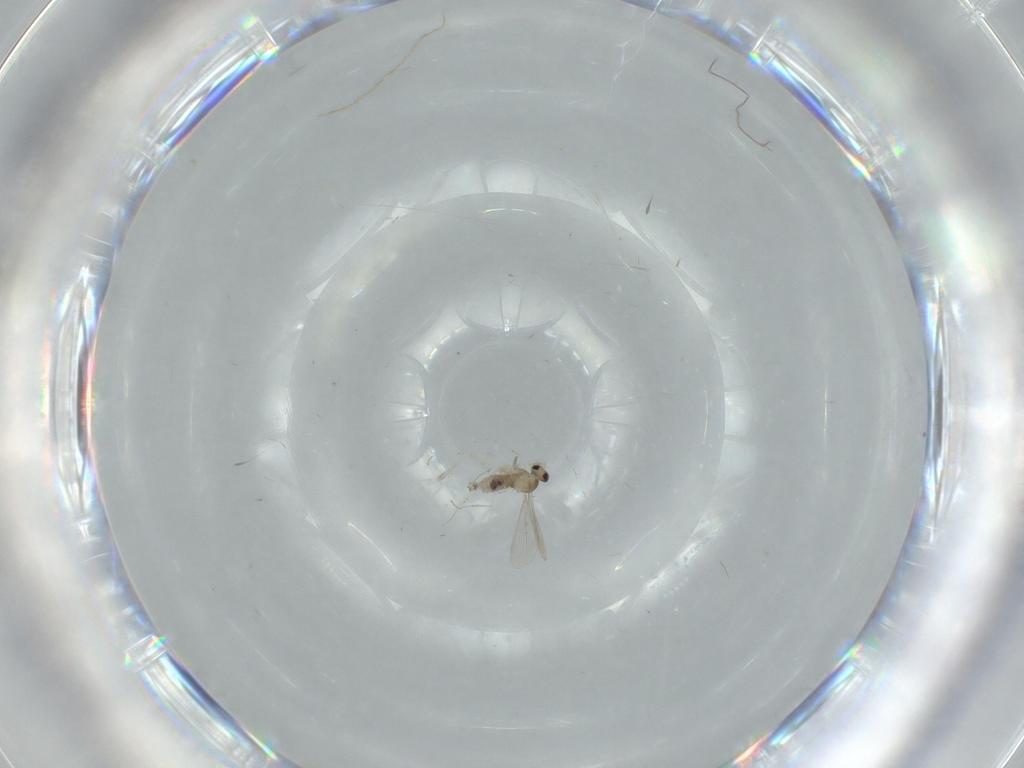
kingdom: Animalia
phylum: Arthropoda
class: Insecta
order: Diptera
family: Cecidomyiidae
